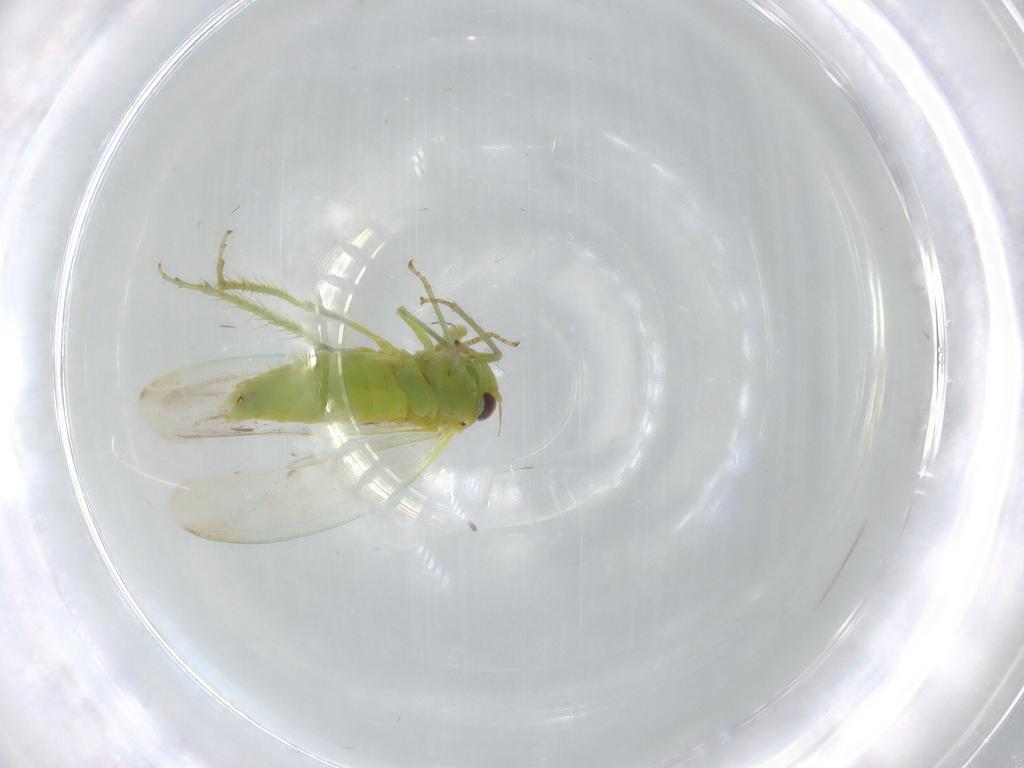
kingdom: Animalia
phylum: Arthropoda
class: Insecta
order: Hemiptera
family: Cicadellidae
